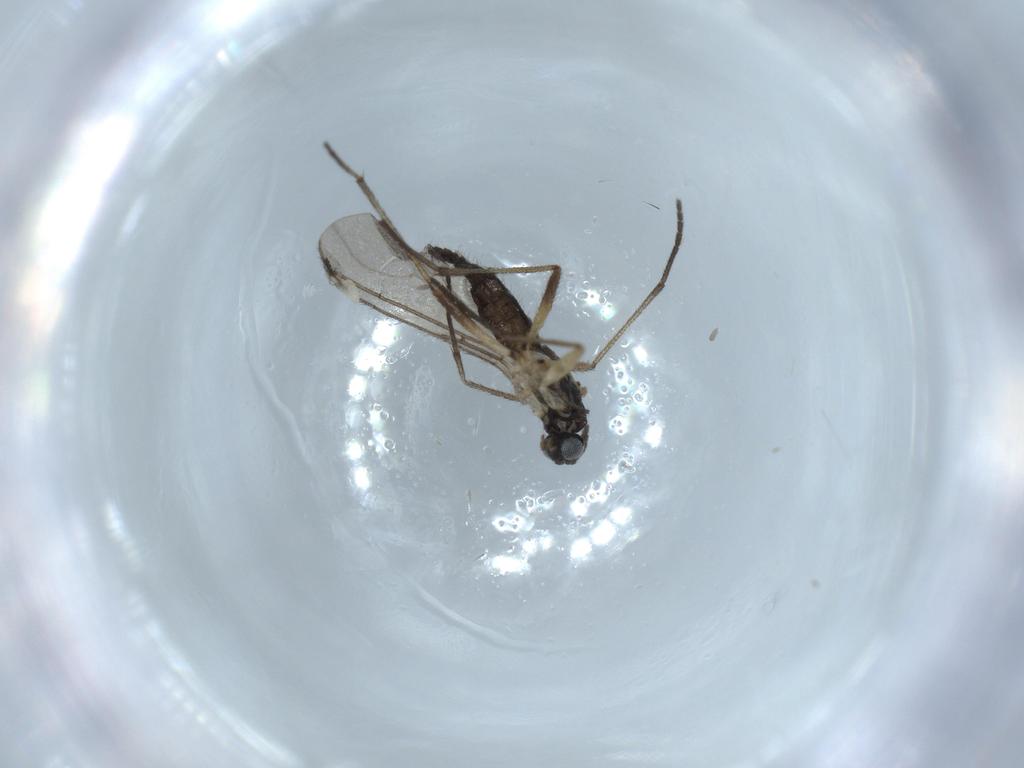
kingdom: Animalia
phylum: Arthropoda
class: Insecta
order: Diptera
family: Sciaridae
